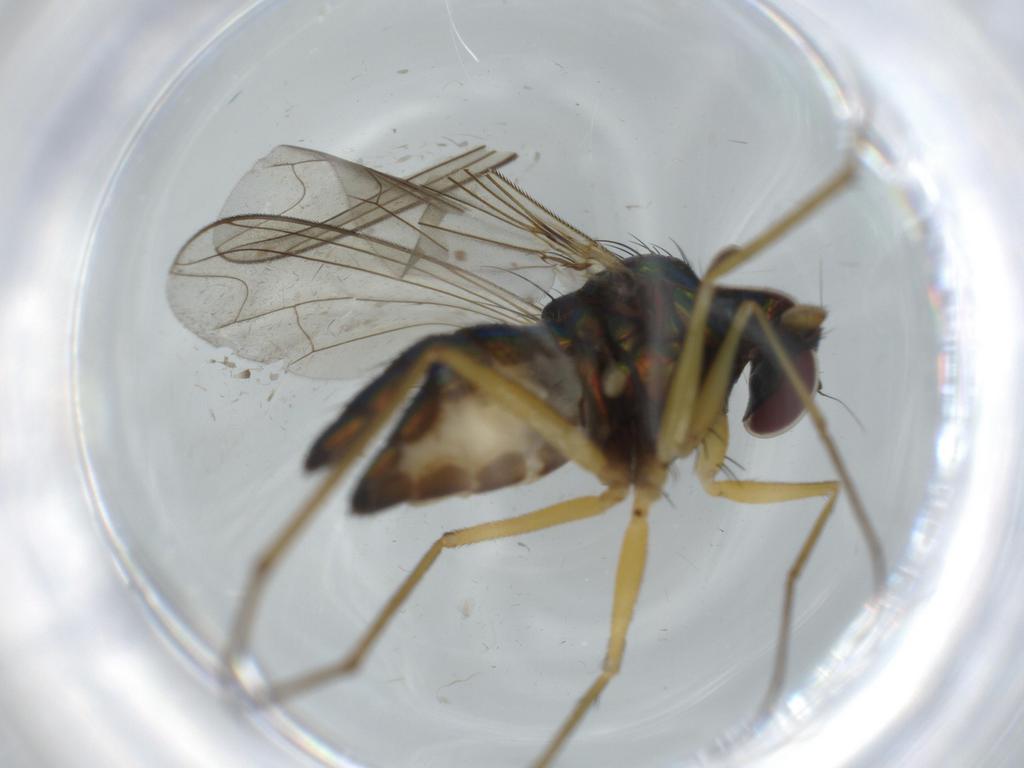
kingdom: Animalia
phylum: Arthropoda
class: Insecta
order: Diptera
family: Dolichopodidae
